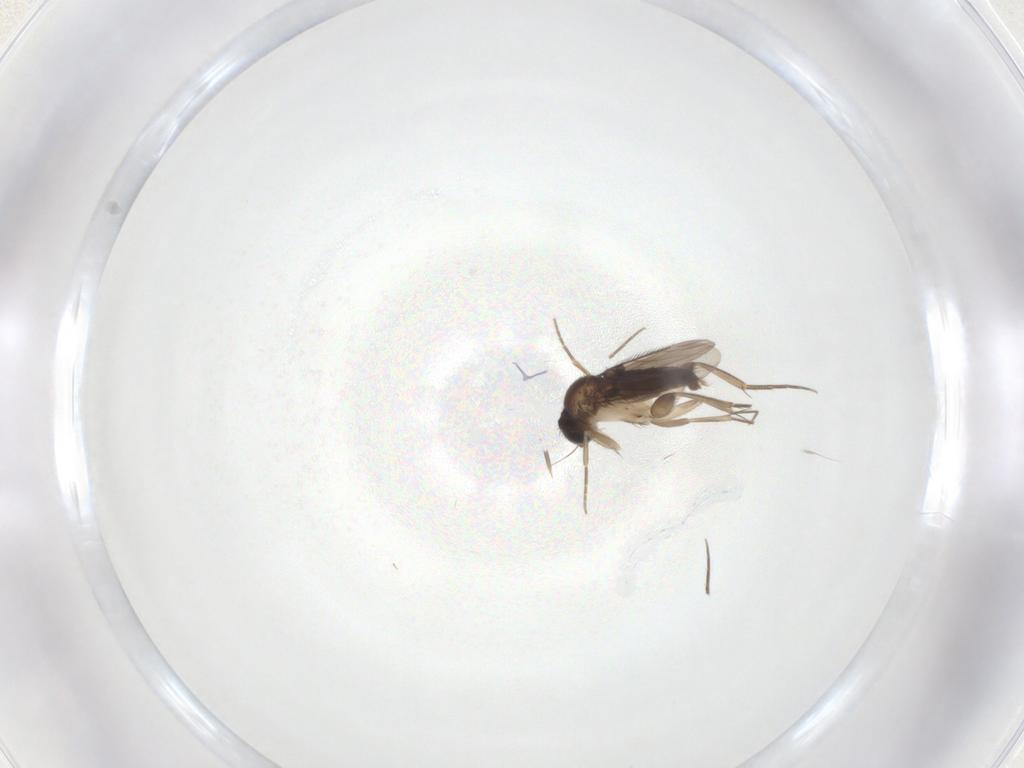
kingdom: Animalia
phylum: Arthropoda
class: Insecta
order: Diptera
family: Phoridae
